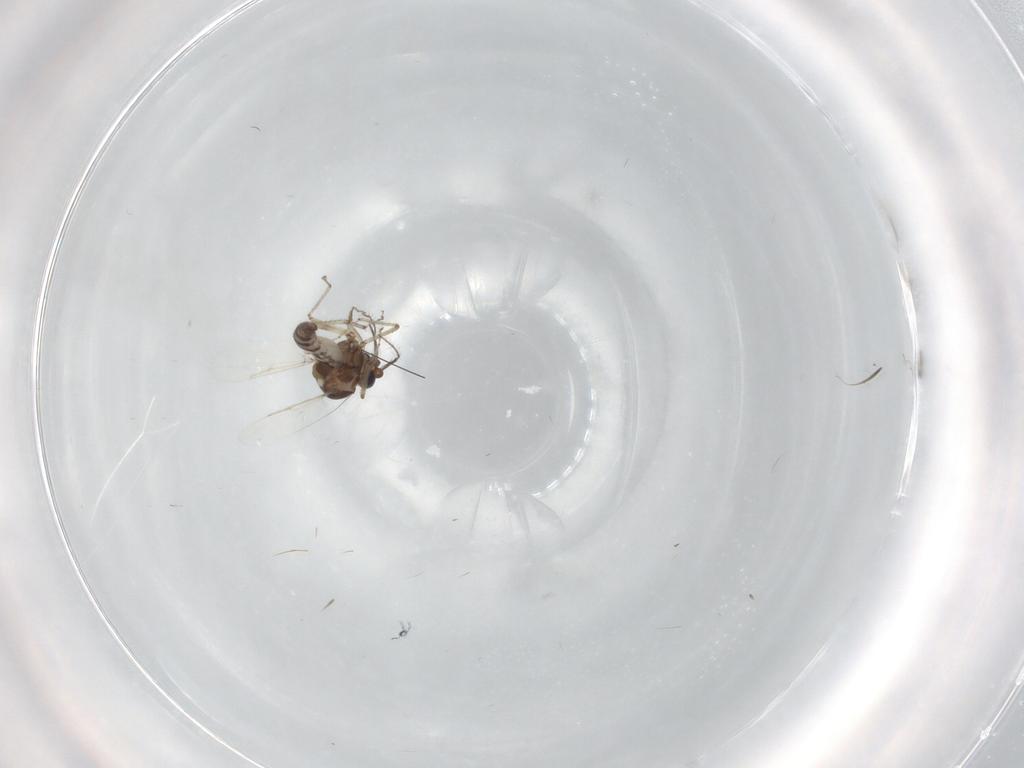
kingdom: Animalia
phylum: Arthropoda
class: Insecta
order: Diptera
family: Ceratopogonidae
